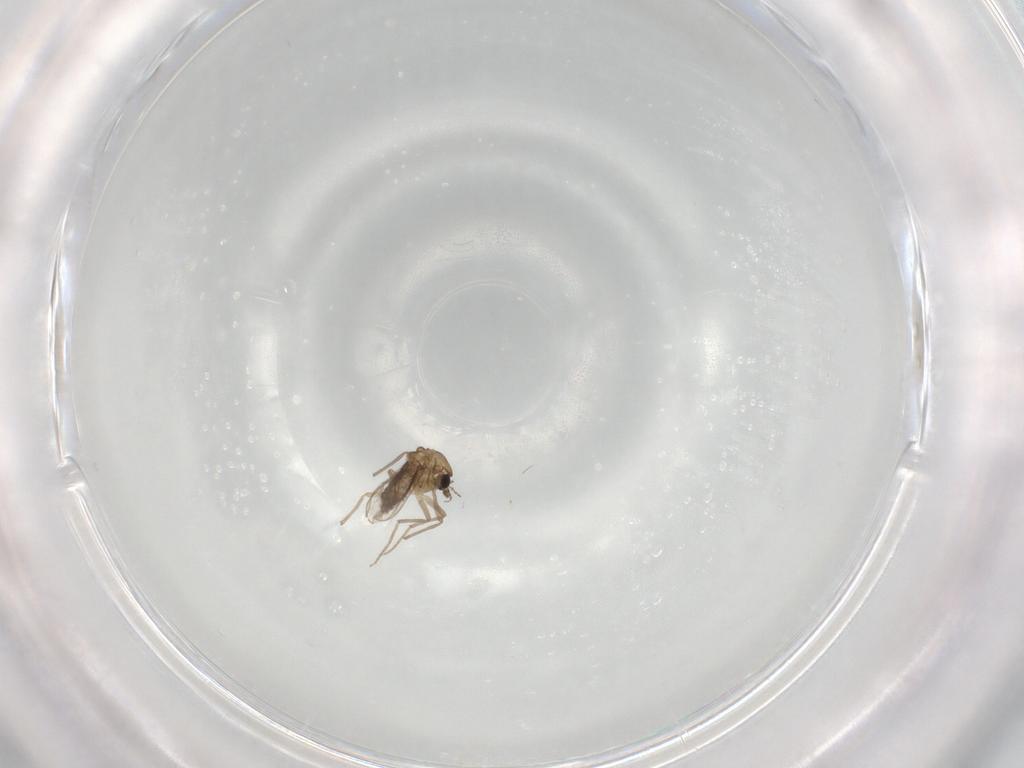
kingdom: Animalia
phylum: Arthropoda
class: Insecta
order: Diptera
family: Chironomidae
